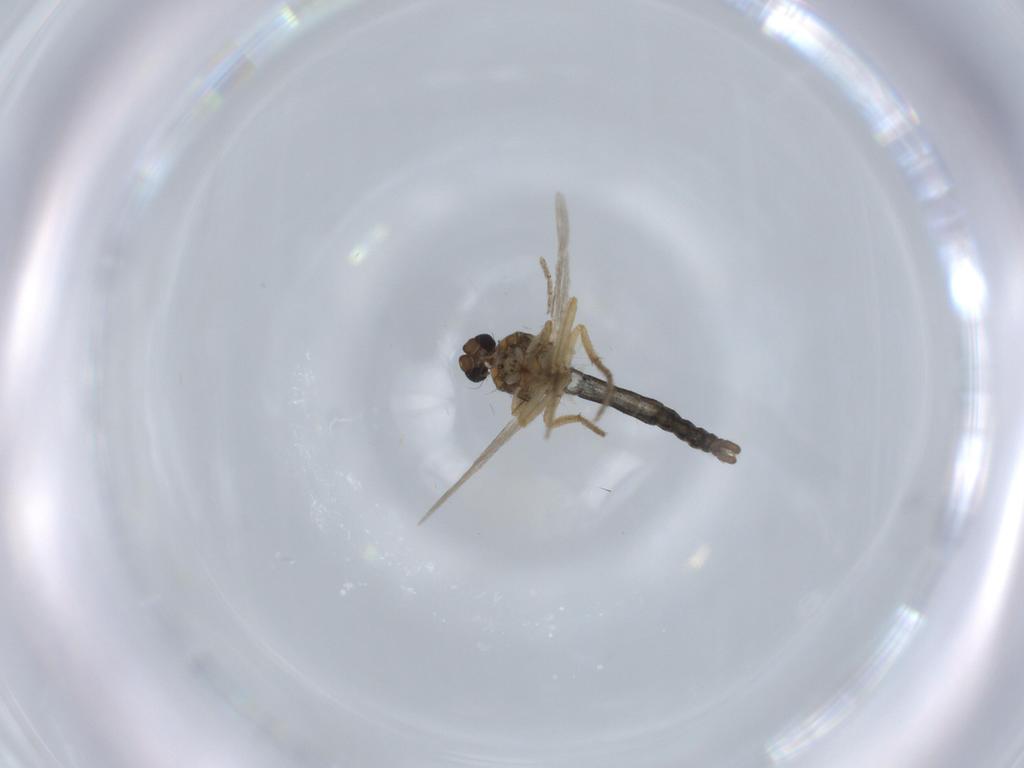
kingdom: Animalia
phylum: Arthropoda
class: Insecta
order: Diptera
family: Ceratopogonidae
